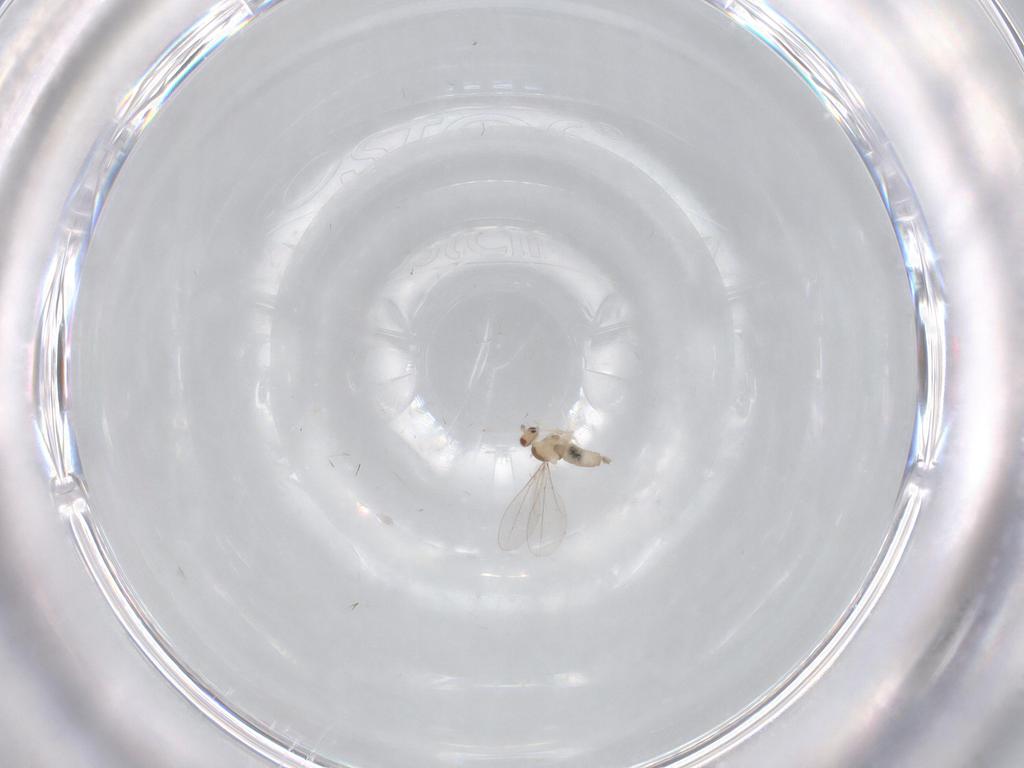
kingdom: Animalia
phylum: Arthropoda
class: Insecta
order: Diptera
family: Cecidomyiidae
